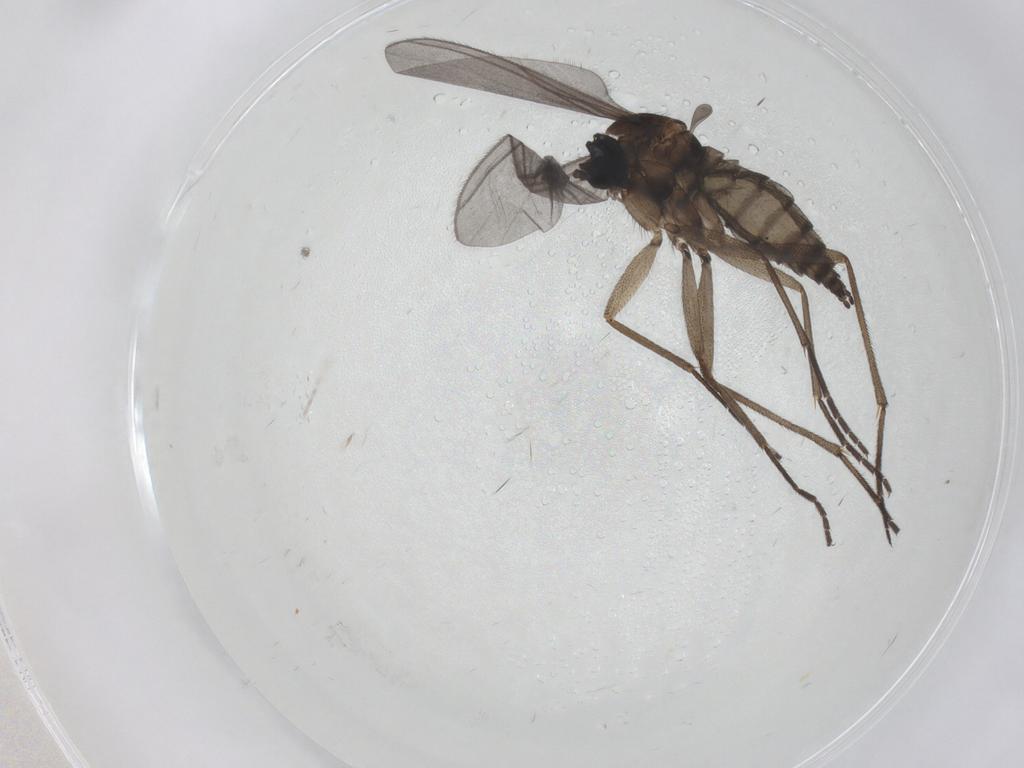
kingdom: Animalia
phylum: Arthropoda
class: Insecta
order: Diptera
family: Sciaridae
